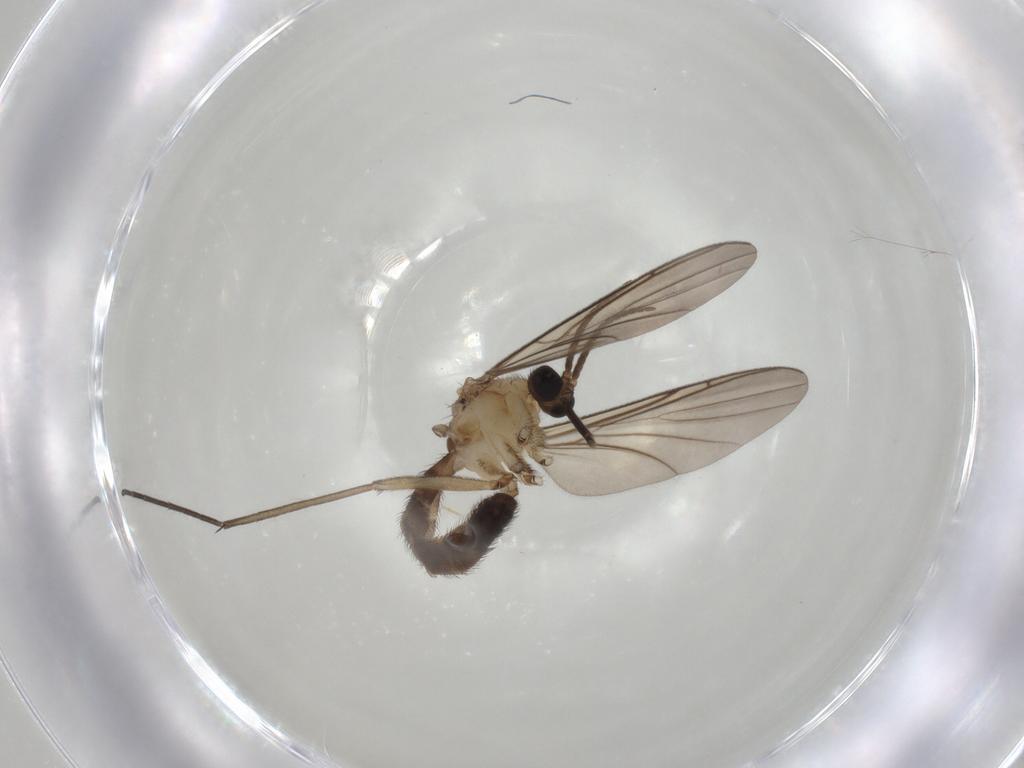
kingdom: Animalia
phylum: Arthropoda
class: Insecta
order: Diptera
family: Keroplatidae
